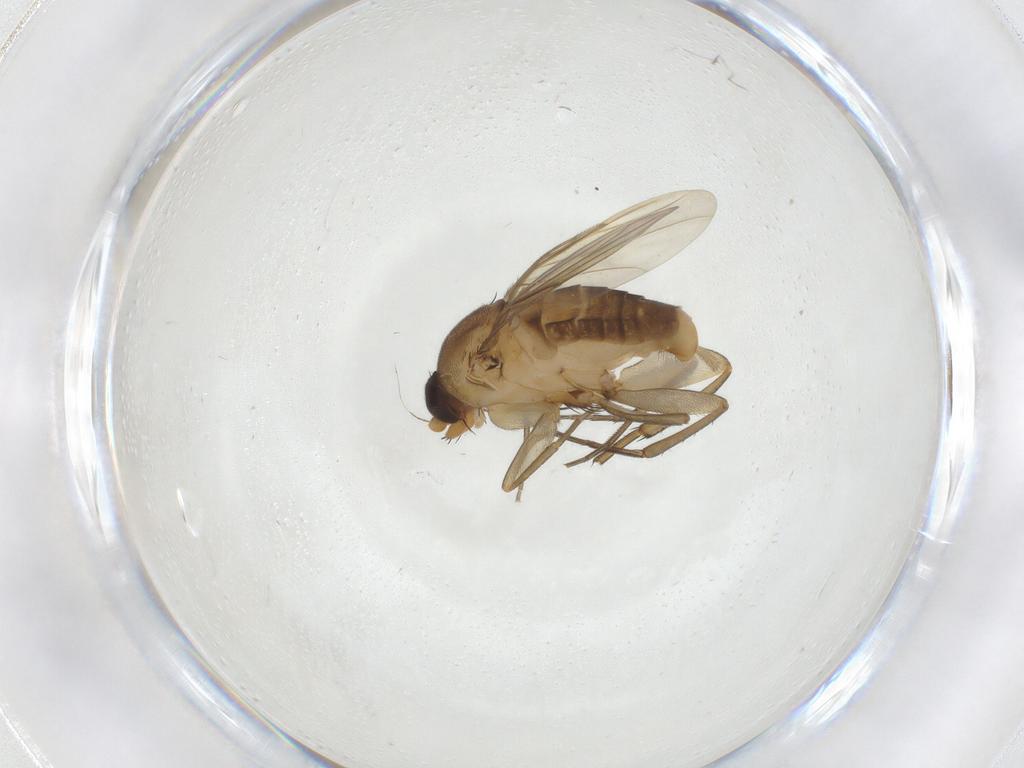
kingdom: Animalia
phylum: Arthropoda
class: Insecta
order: Diptera
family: Phoridae
